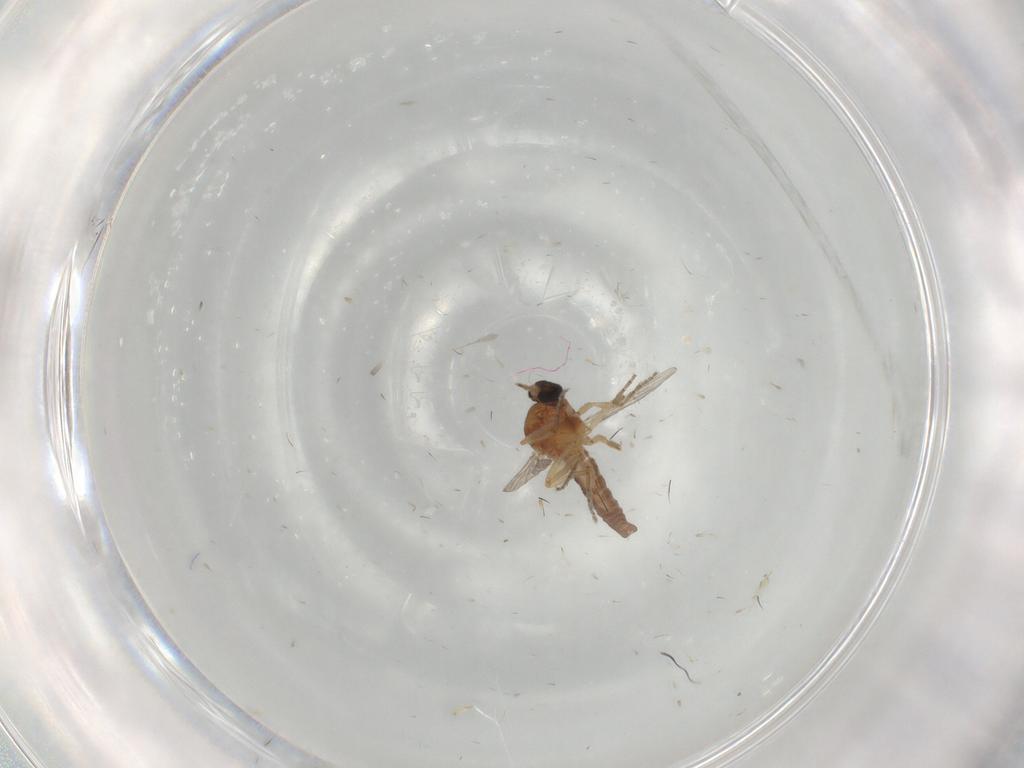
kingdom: Animalia
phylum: Arthropoda
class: Insecta
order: Diptera
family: Ceratopogonidae
